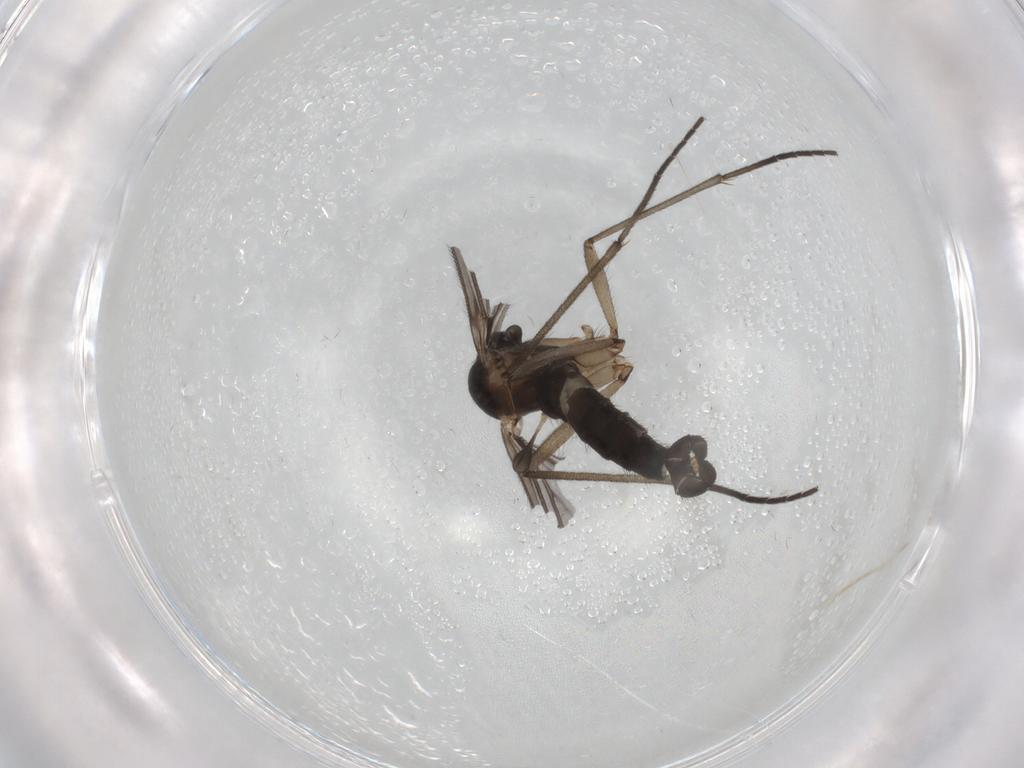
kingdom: Animalia
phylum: Arthropoda
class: Insecta
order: Diptera
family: Sciaridae
